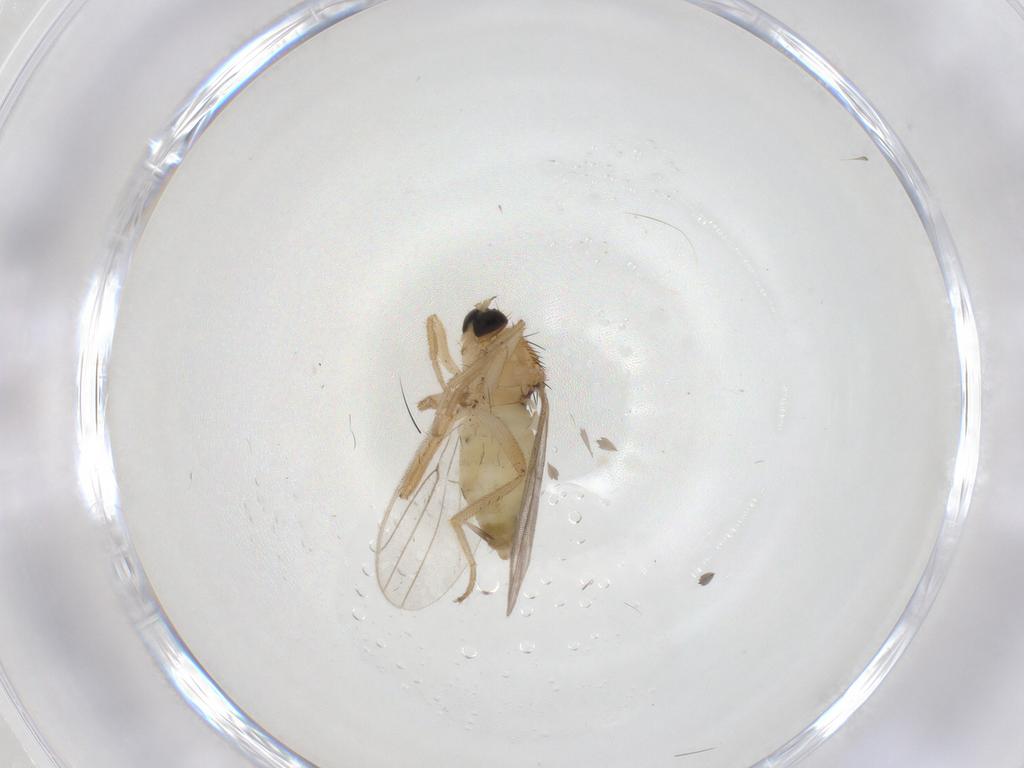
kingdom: Animalia
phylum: Arthropoda
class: Insecta
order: Diptera
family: Hybotidae
